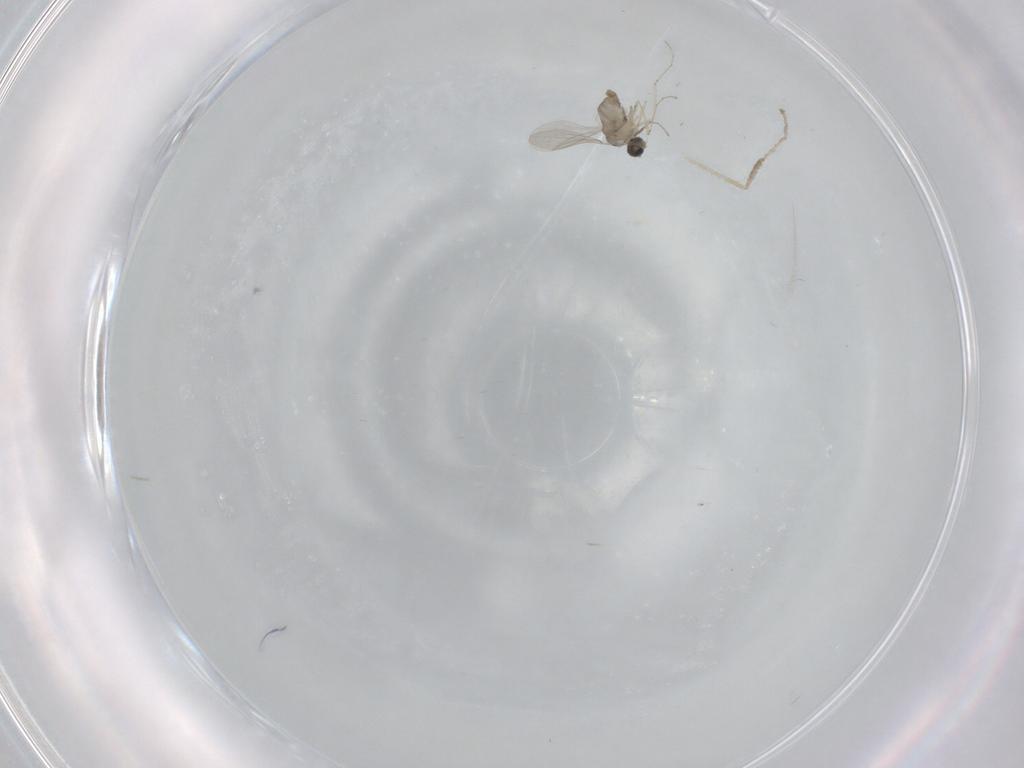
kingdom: Animalia
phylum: Arthropoda
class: Insecta
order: Diptera
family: Cecidomyiidae
